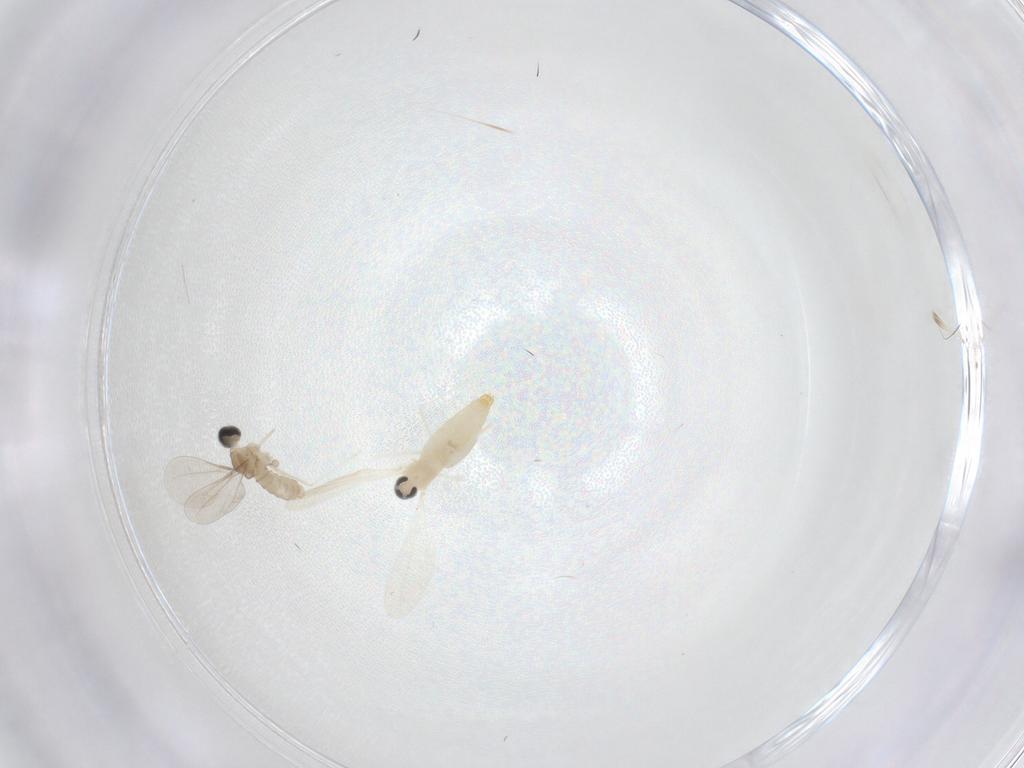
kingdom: Animalia
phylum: Arthropoda
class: Insecta
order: Diptera
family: Cecidomyiidae
